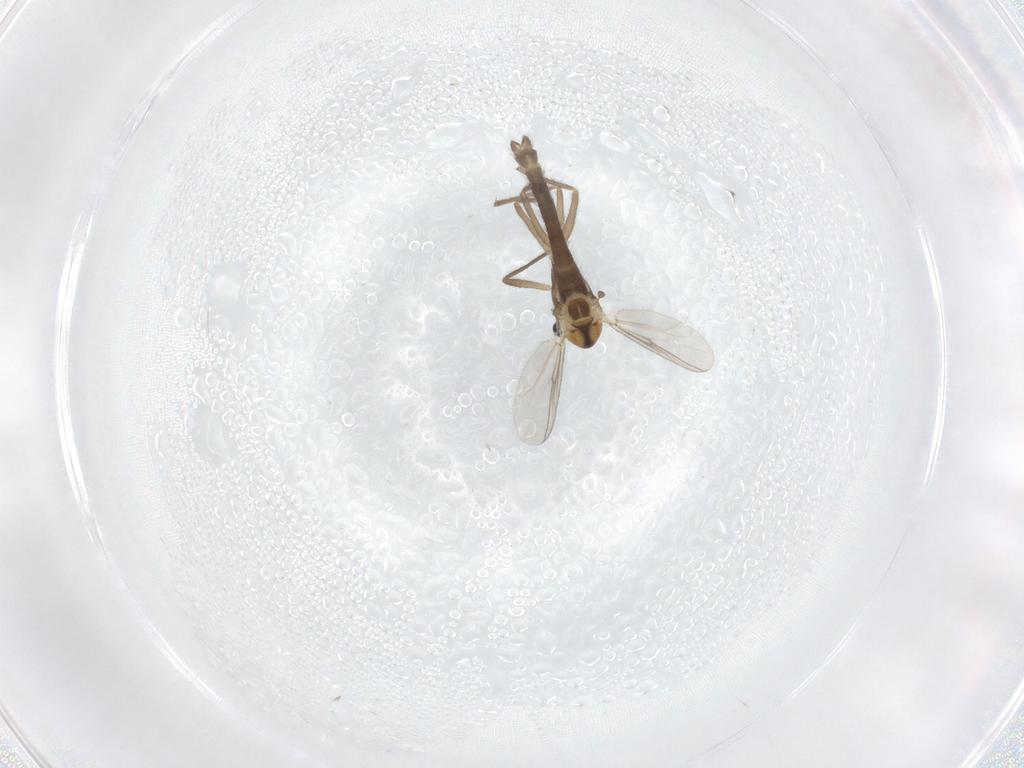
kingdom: Animalia
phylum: Arthropoda
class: Insecta
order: Diptera
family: Chironomidae
